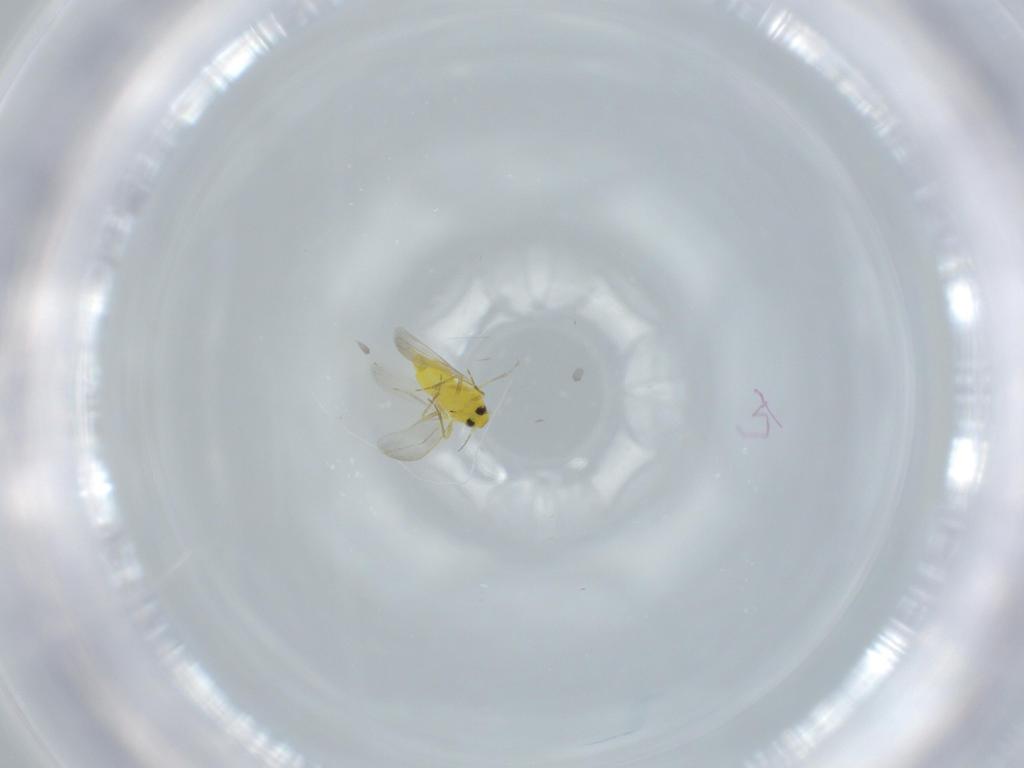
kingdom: Animalia
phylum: Arthropoda
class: Insecta
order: Hemiptera
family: Aleyrodidae
